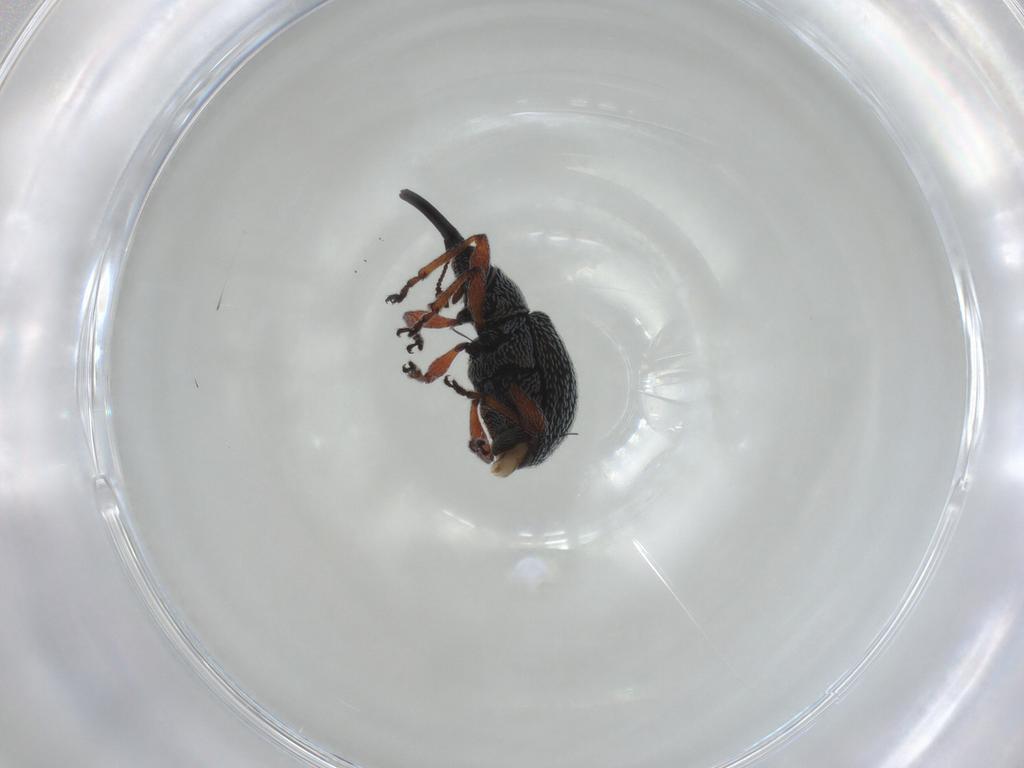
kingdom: Animalia
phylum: Arthropoda
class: Insecta
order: Coleoptera
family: Brentidae
